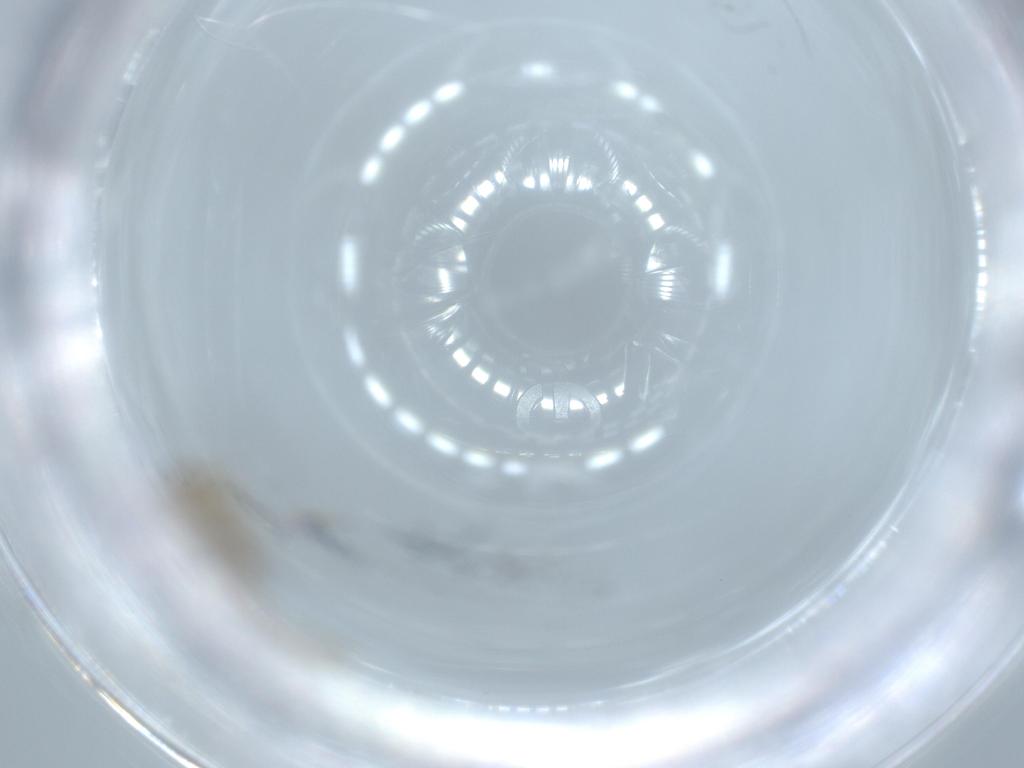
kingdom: Animalia
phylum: Arthropoda
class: Insecta
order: Psocodea
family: Lachesillidae
